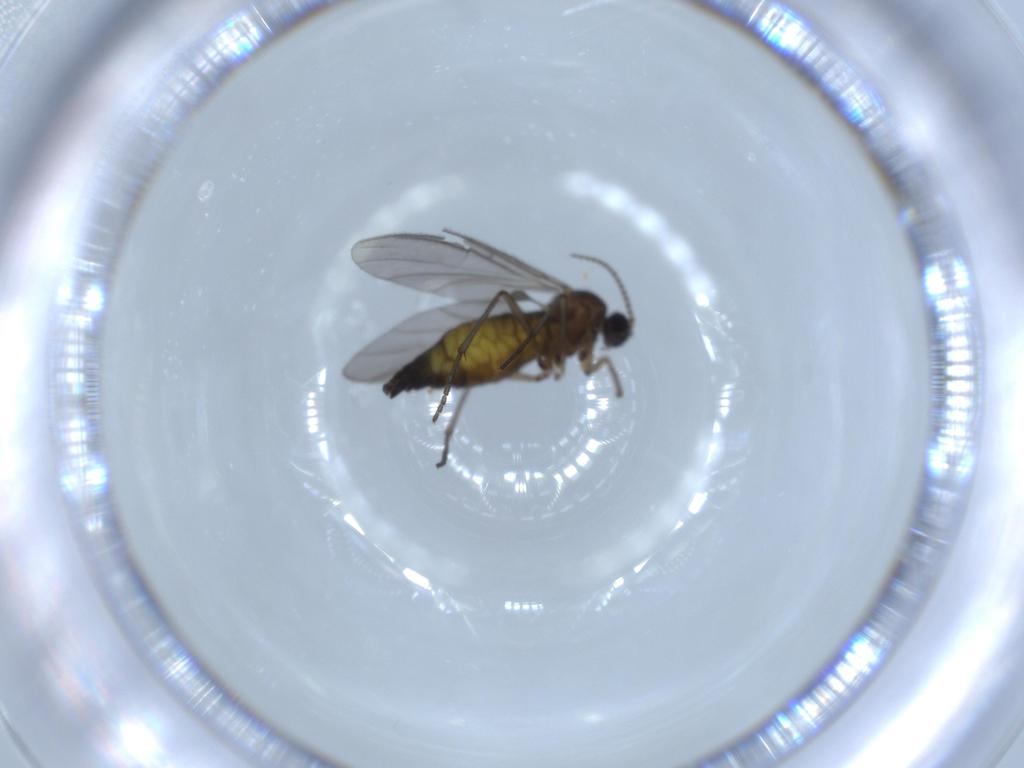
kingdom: Animalia
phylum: Arthropoda
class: Insecta
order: Diptera
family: Sciaridae
